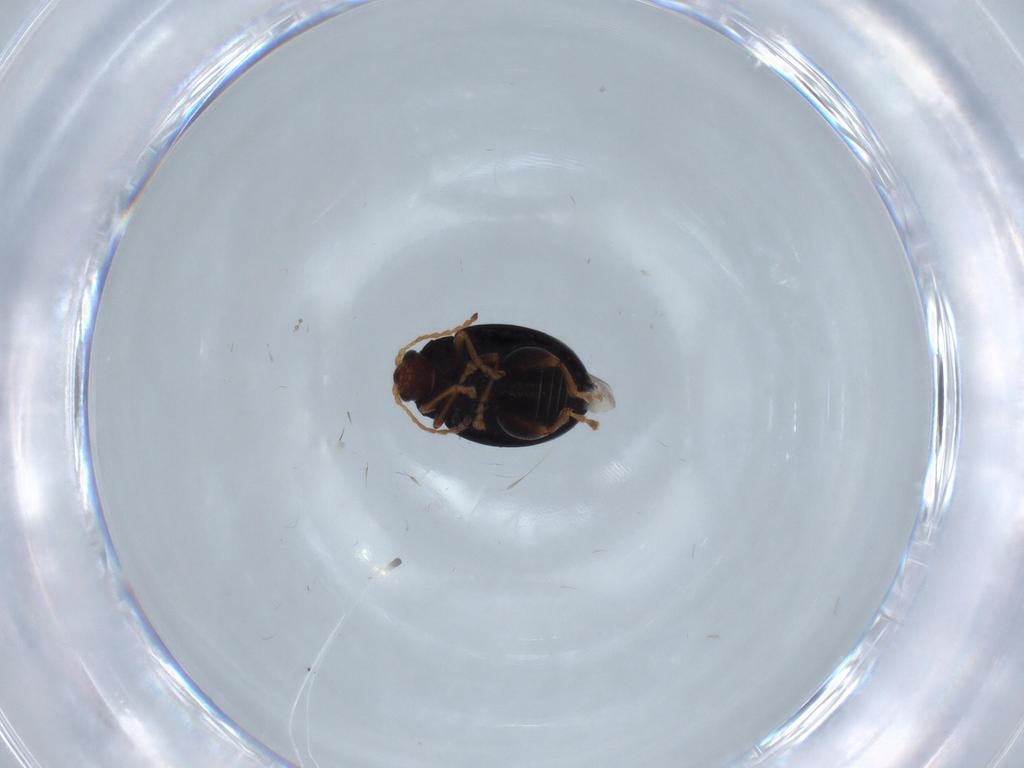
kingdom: Animalia
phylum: Arthropoda
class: Insecta
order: Coleoptera
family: Curculionidae
